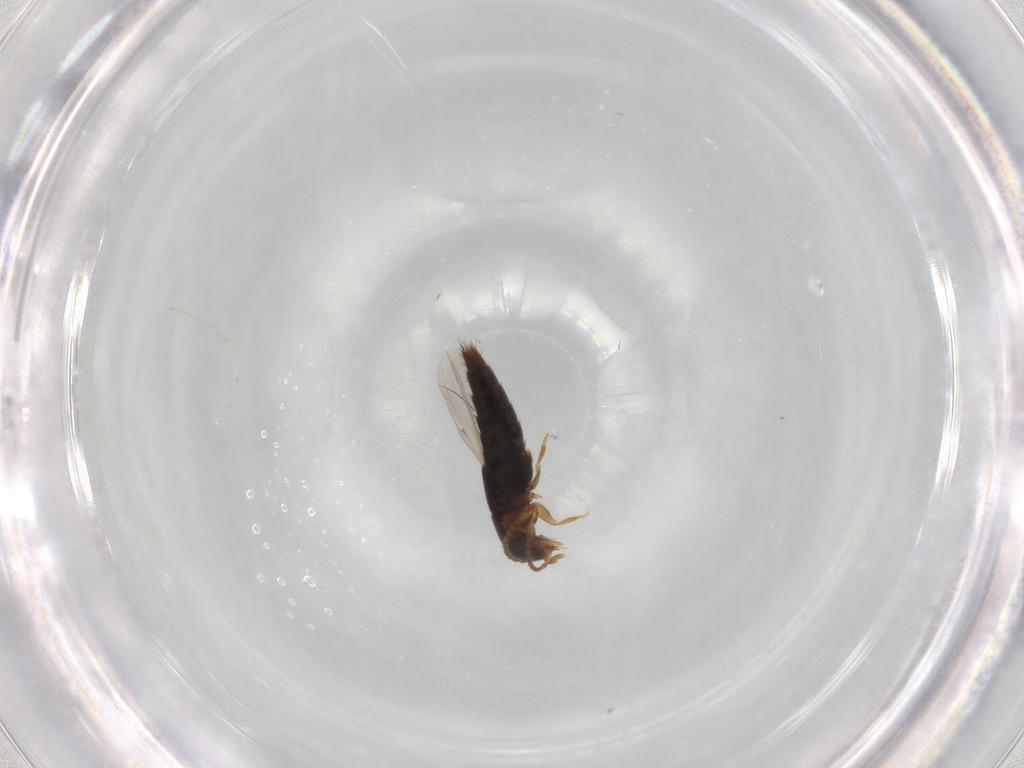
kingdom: Animalia
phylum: Arthropoda
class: Insecta
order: Coleoptera
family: Staphylinidae
